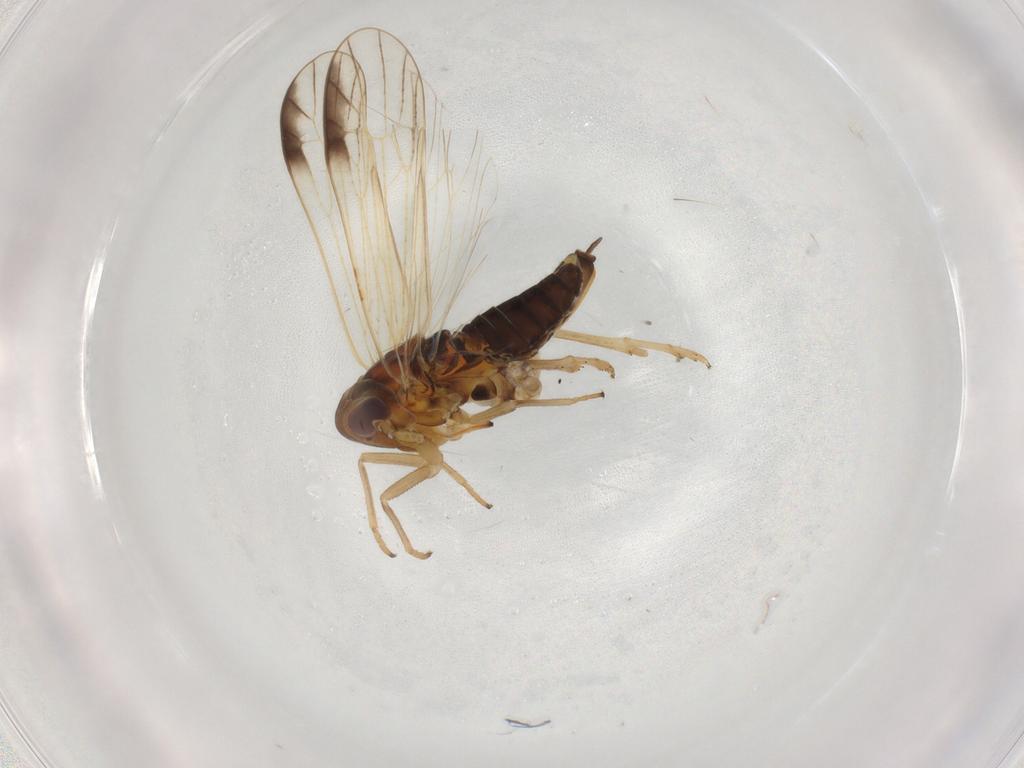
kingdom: Animalia
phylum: Arthropoda
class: Insecta
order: Hemiptera
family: Delphacidae
